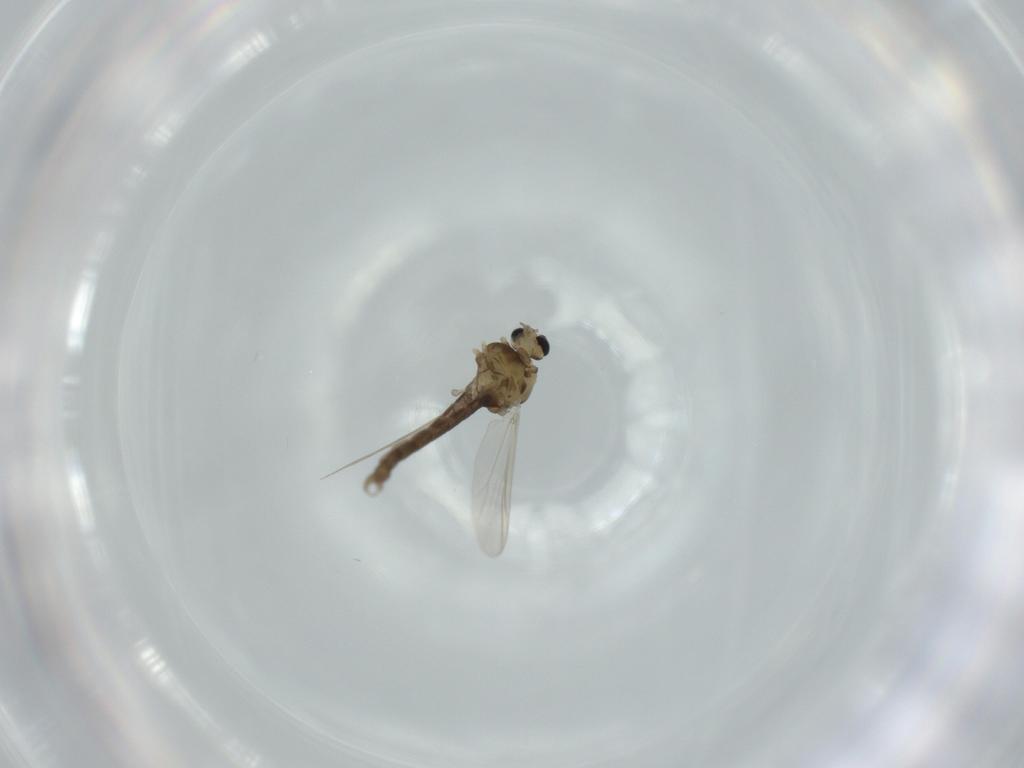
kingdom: Animalia
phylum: Arthropoda
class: Insecta
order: Diptera
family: Chironomidae
